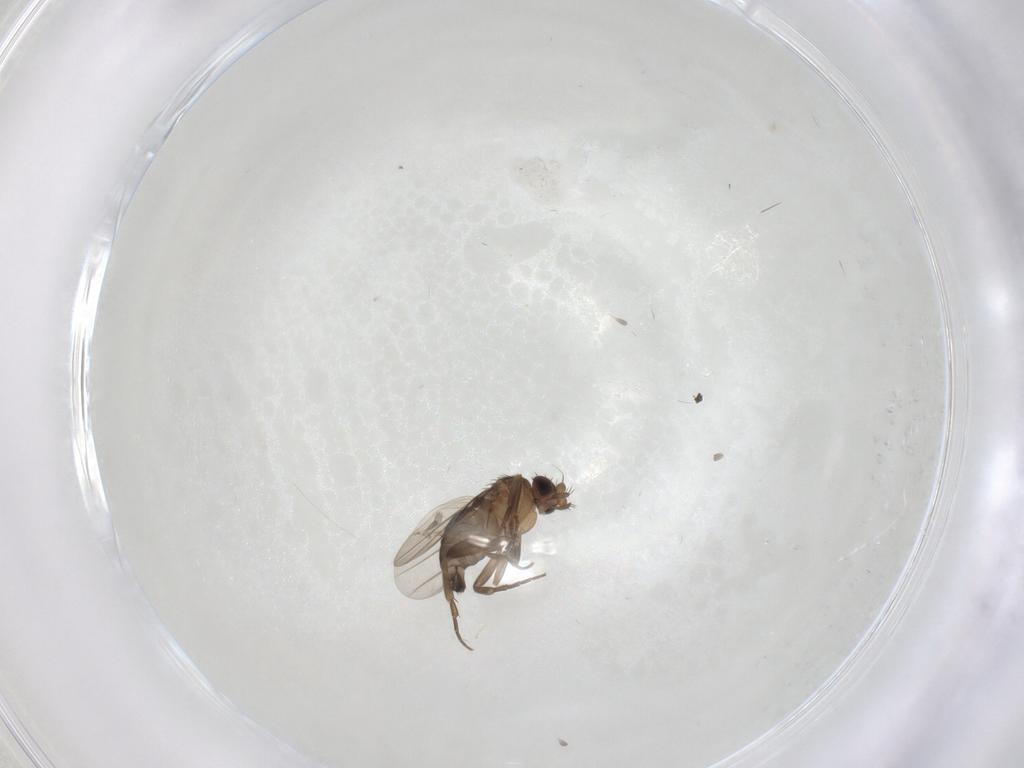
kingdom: Animalia
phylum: Arthropoda
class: Insecta
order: Diptera
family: Phoridae
